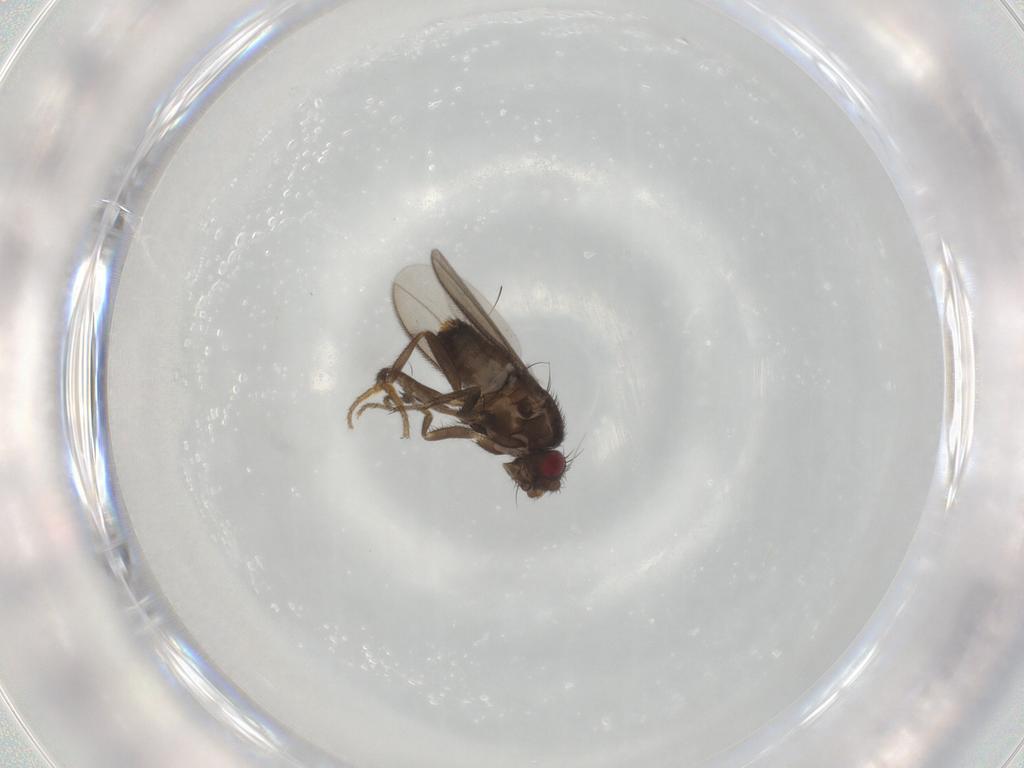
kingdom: Animalia
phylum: Arthropoda
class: Insecta
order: Diptera
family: Sphaeroceridae
